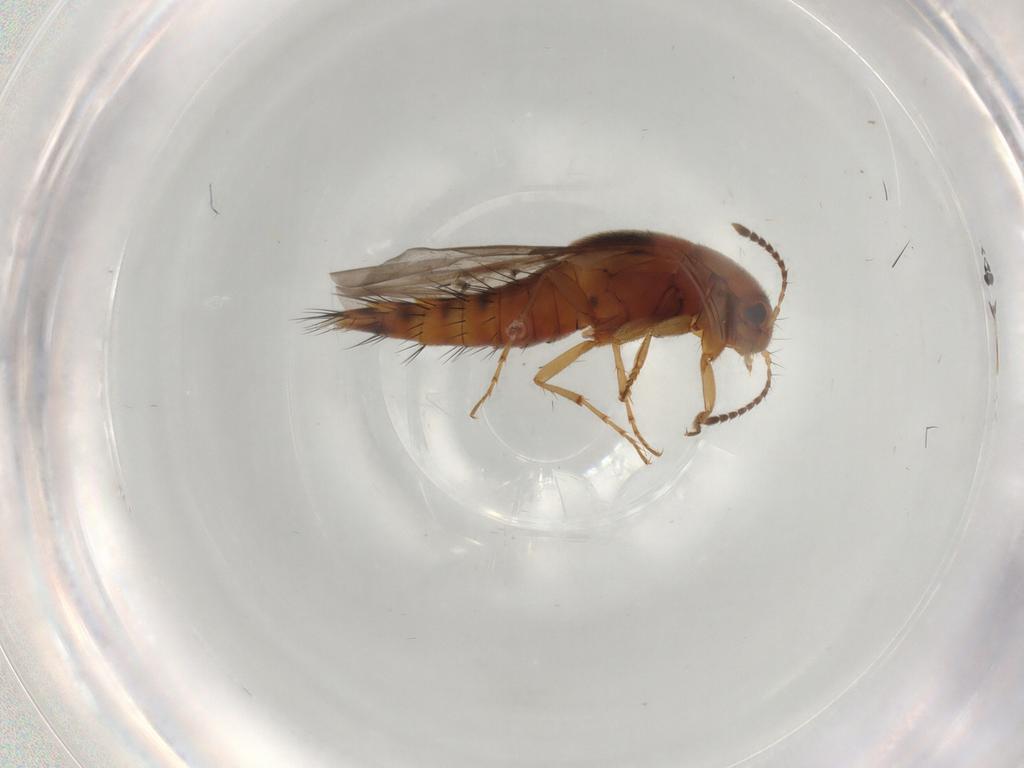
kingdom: Animalia
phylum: Arthropoda
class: Insecta
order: Coleoptera
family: Staphylinidae
